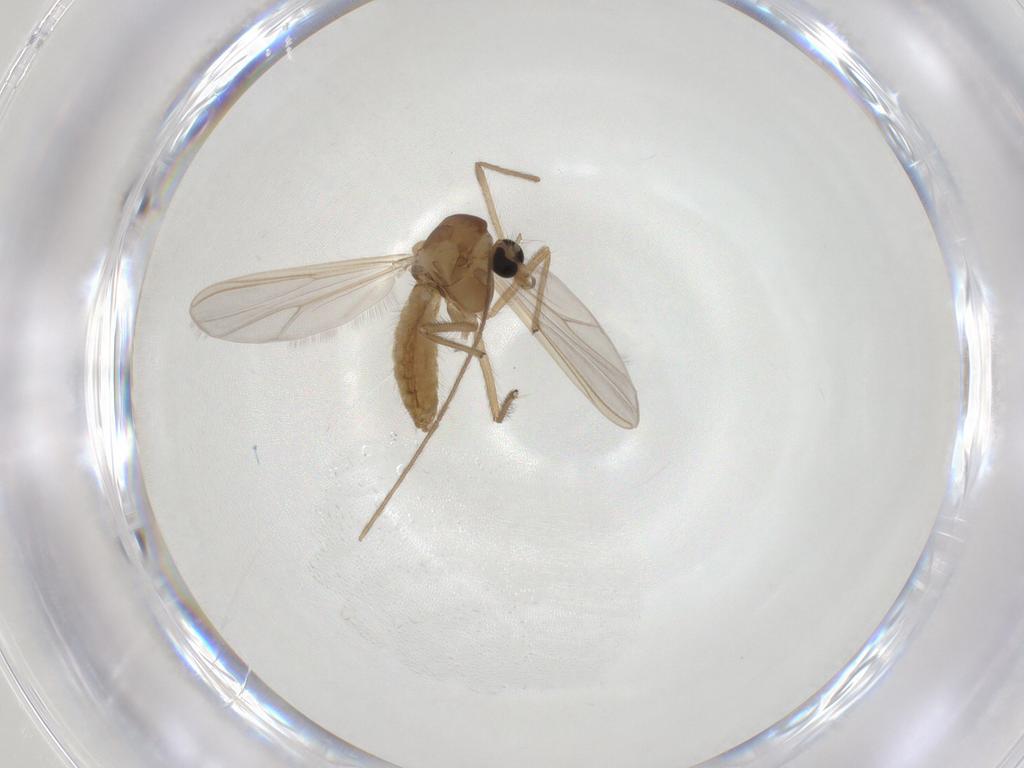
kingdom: Animalia
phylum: Arthropoda
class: Insecta
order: Diptera
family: Chironomidae
